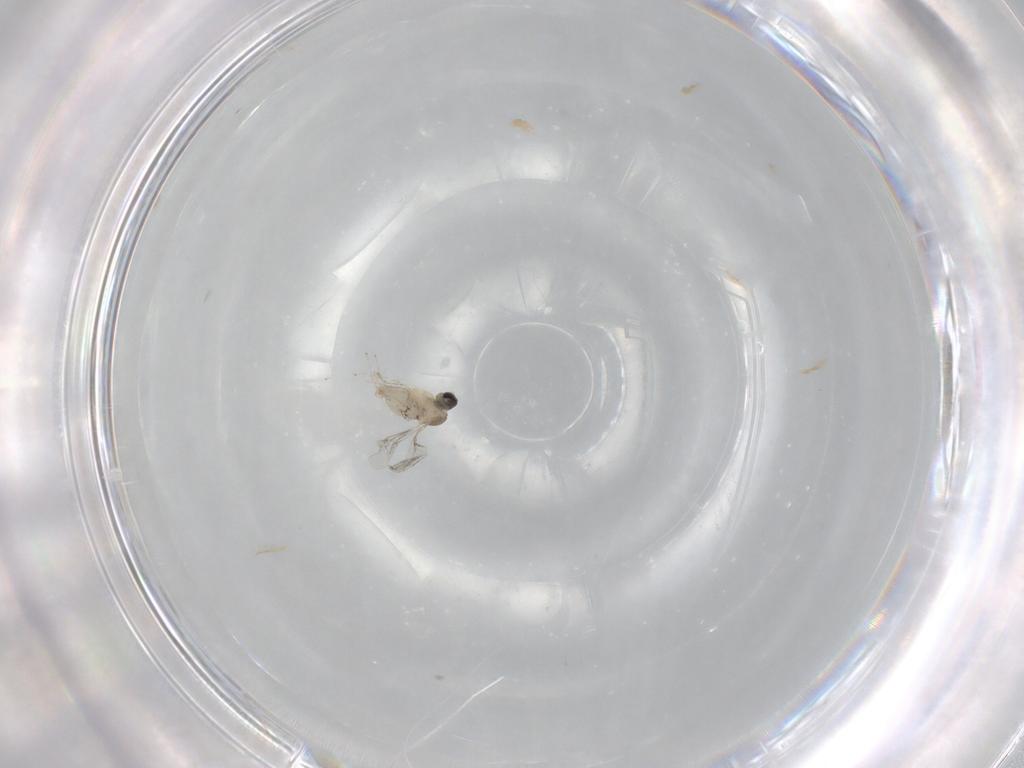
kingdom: Animalia
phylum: Arthropoda
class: Insecta
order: Diptera
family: Cecidomyiidae
